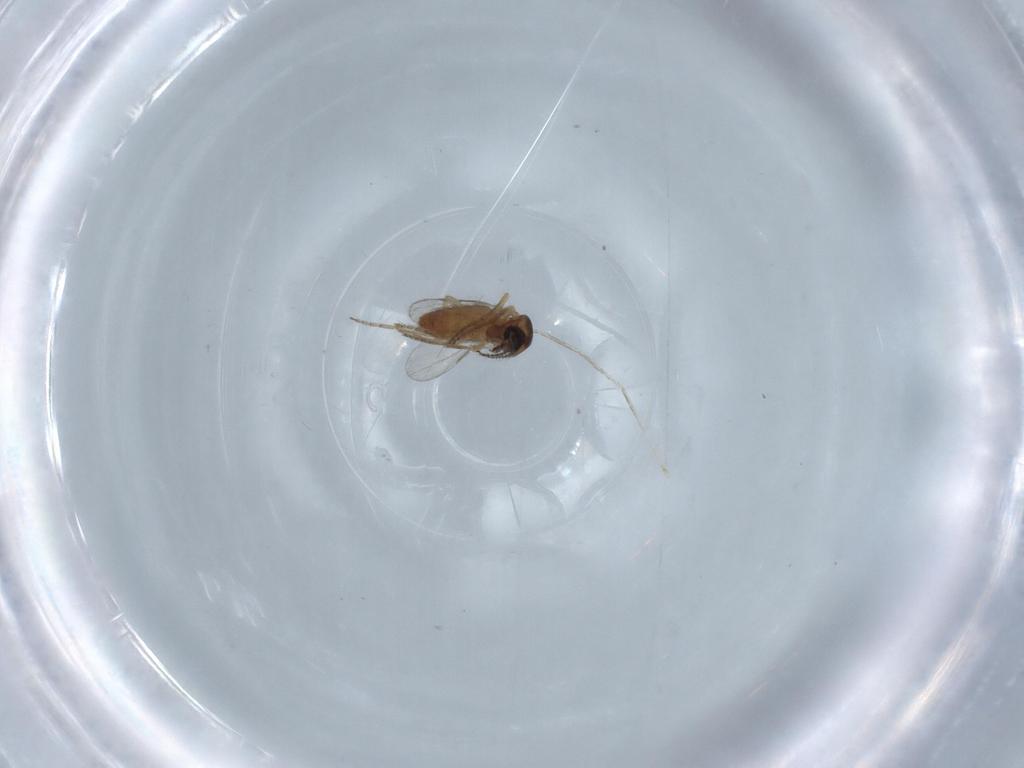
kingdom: Animalia
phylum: Arthropoda
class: Insecta
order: Diptera
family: Ceratopogonidae
